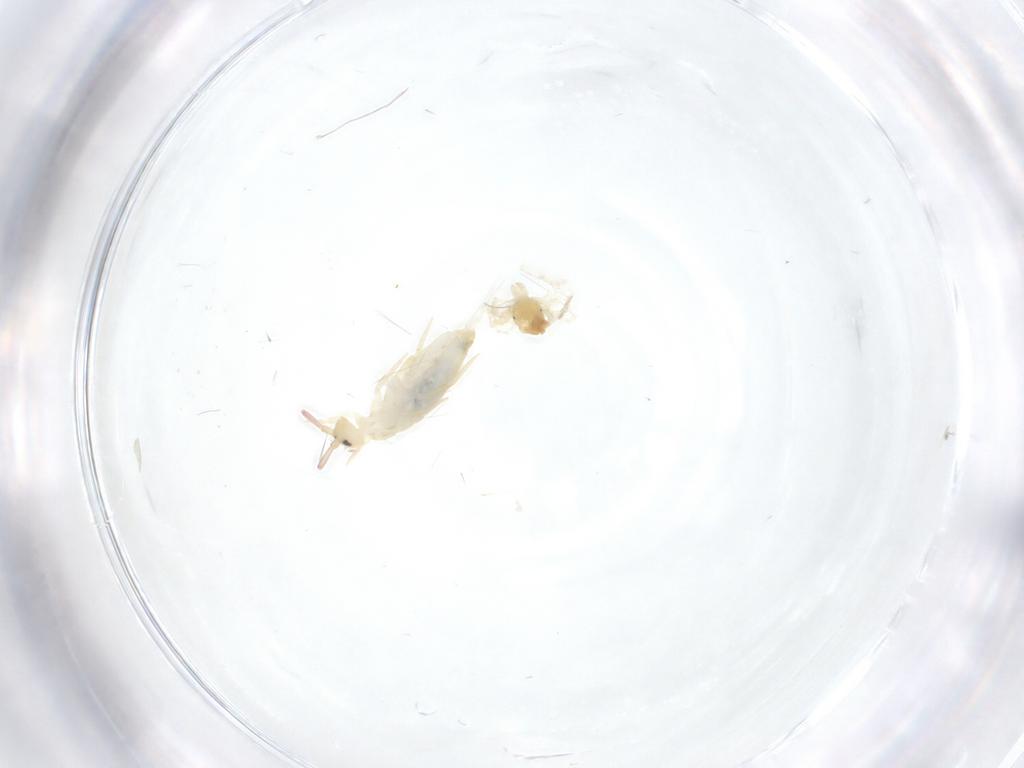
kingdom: Animalia
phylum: Arthropoda
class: Arachnida
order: Trombidiformes
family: Anystidae
